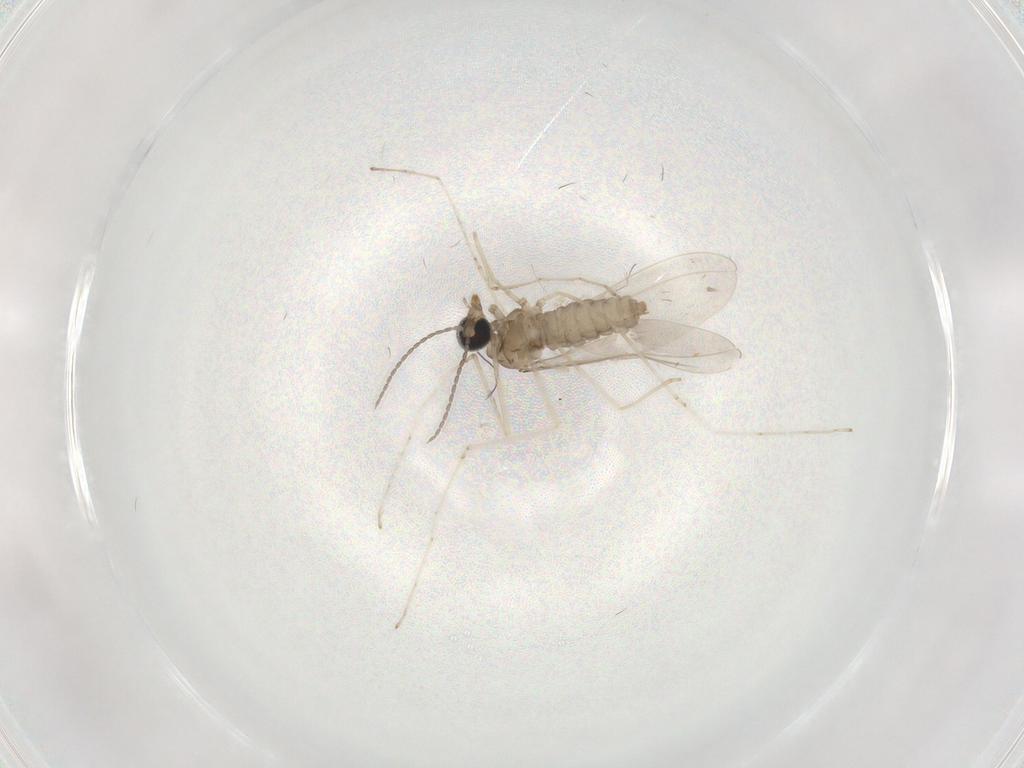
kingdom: Animalia
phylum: Arthropoda
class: Insecta
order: Diptera
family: Cecidomyiidae
